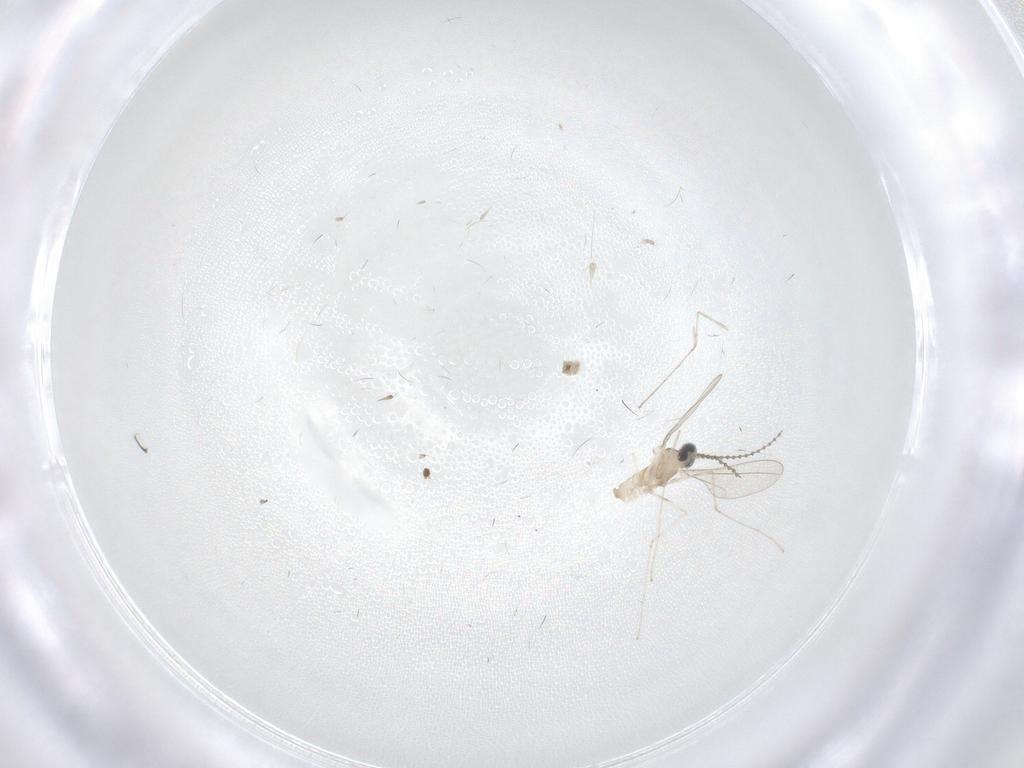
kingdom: Animalia
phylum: Arthropoda
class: Insecta
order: Diptera
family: Cecidomyiidae
